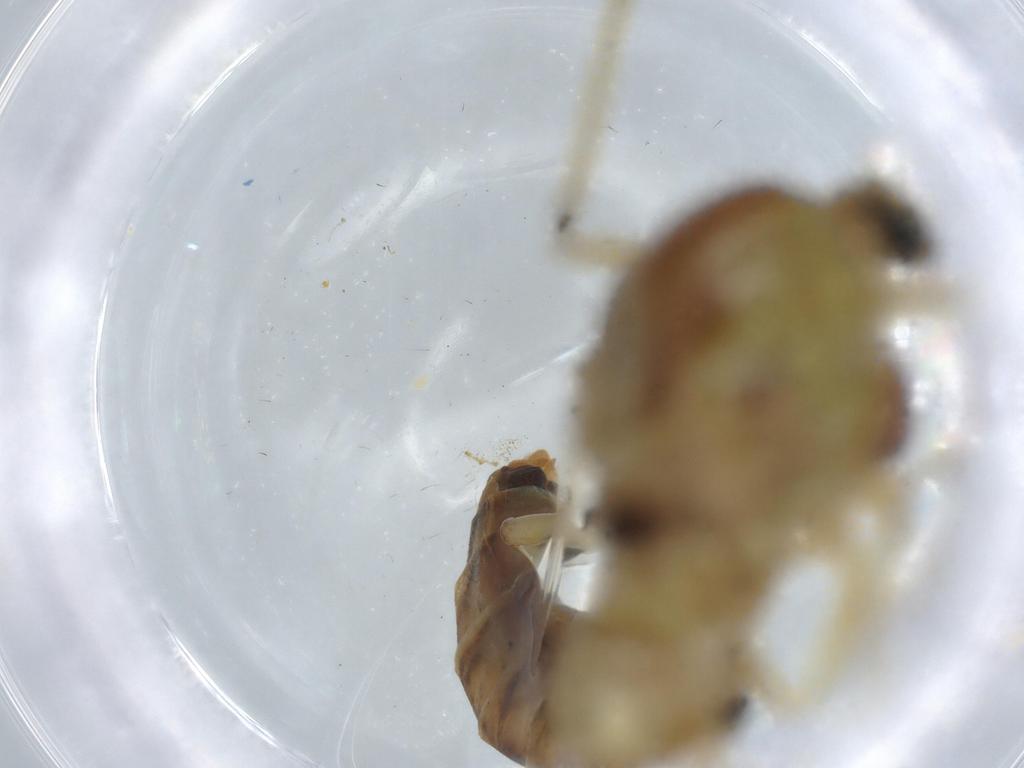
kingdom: Animalia
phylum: Arthropoda
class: Insecta
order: Diptera
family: Chironomidae
